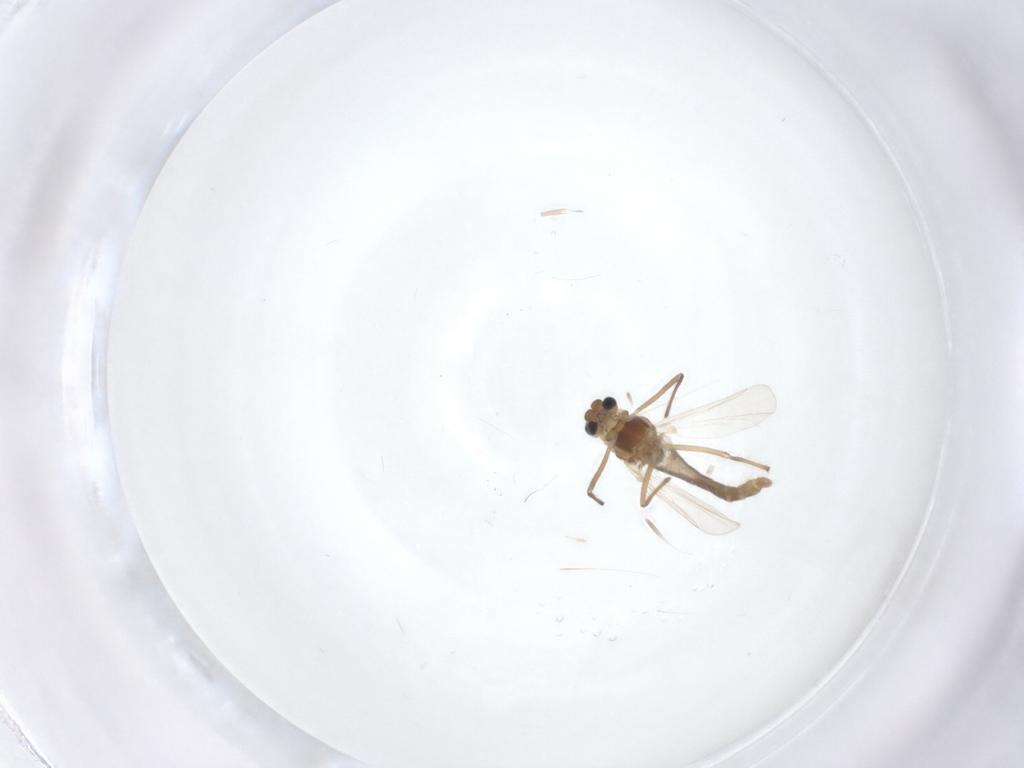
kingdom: Animalia
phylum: Arthropoda
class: Insecta
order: Diptera
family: Chironomidae
